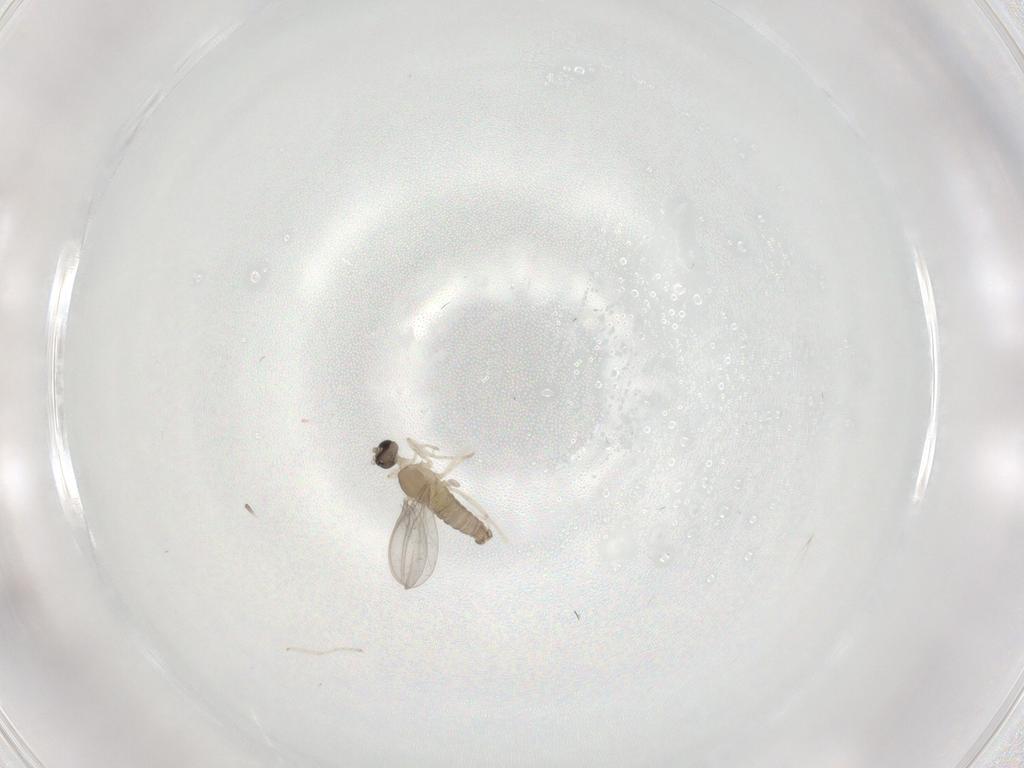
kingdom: Animalia
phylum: Arthropoda
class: Insecta
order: Diptera
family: Cecidomyiidae
